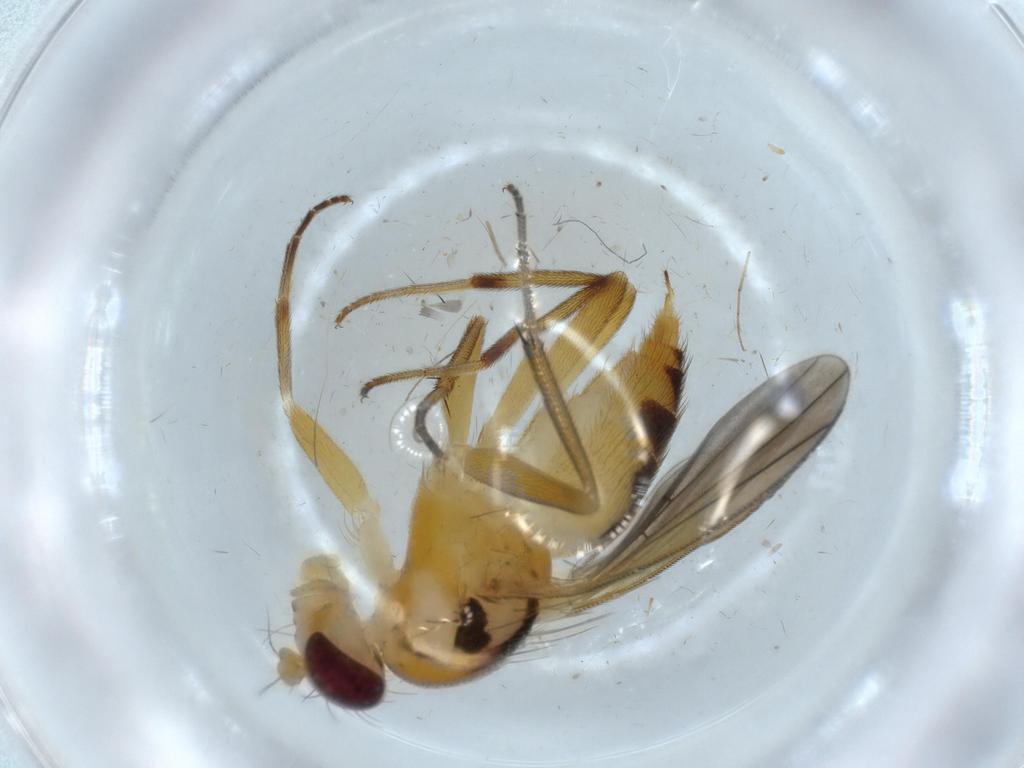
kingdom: Animalia
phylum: Arthropoda
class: Insecta
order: Diptera
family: Clusiidae
